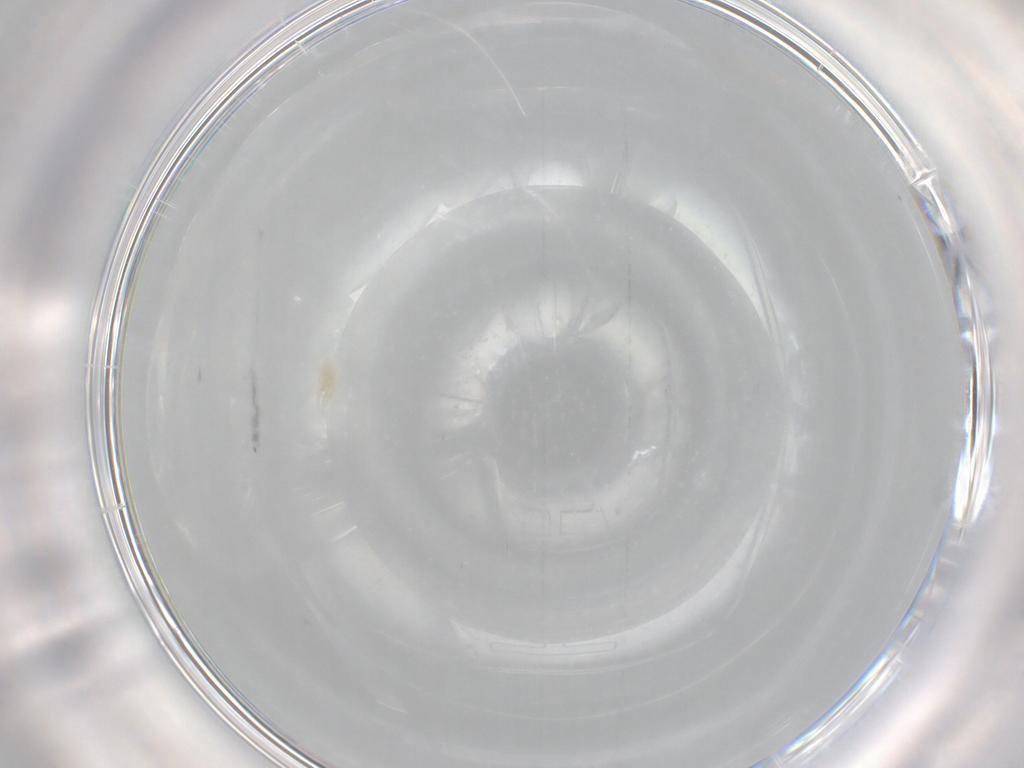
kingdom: Animalia
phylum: Arthropoda
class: Arachnida
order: Trombidiformes
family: Eupodidae
